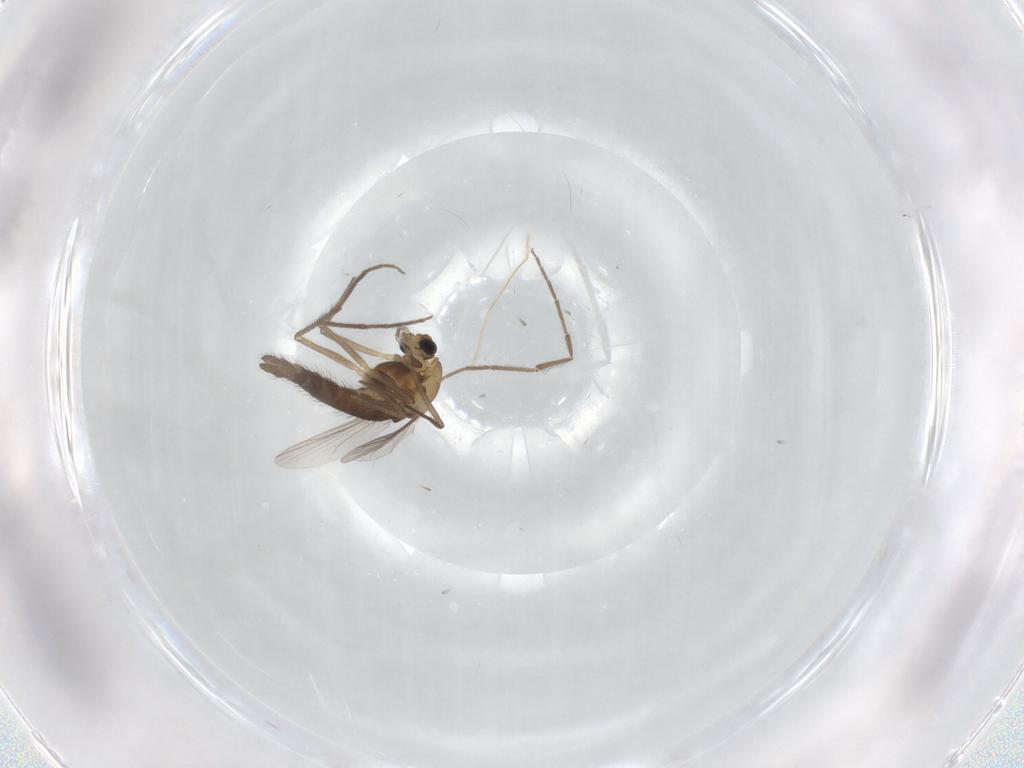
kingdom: Animalia
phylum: Arthropoda
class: Insecta
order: Diptera
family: Chironomidae
